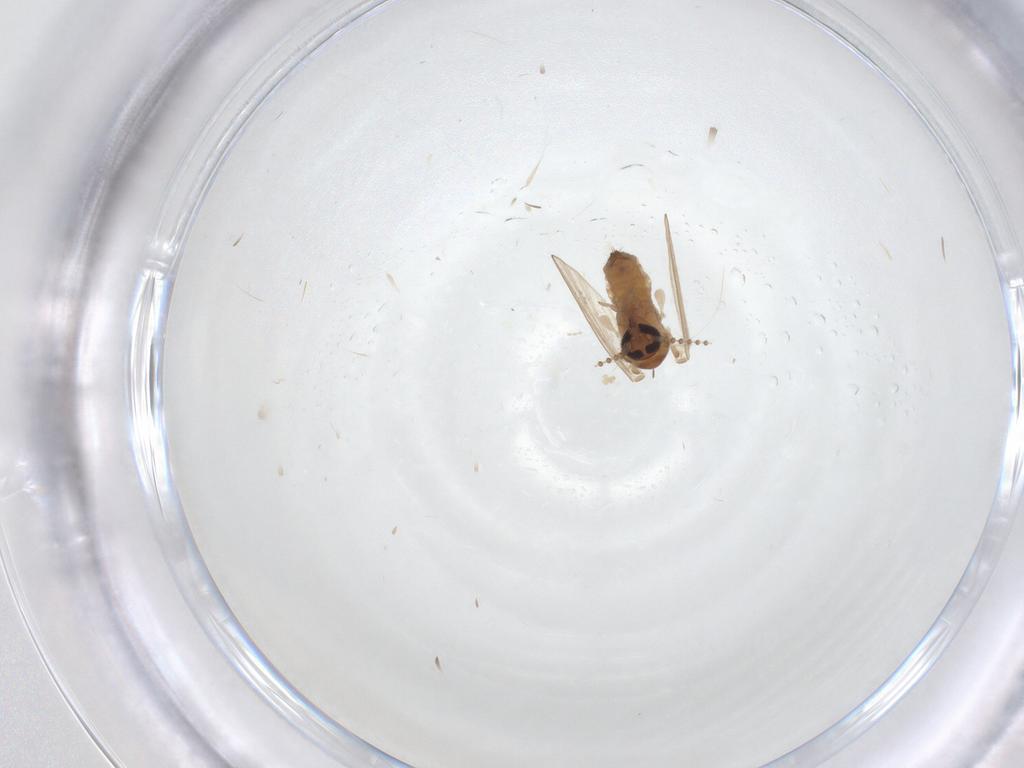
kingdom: Animalia
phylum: Arthropoda
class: Insecta
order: Diptera
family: Psychodidae
